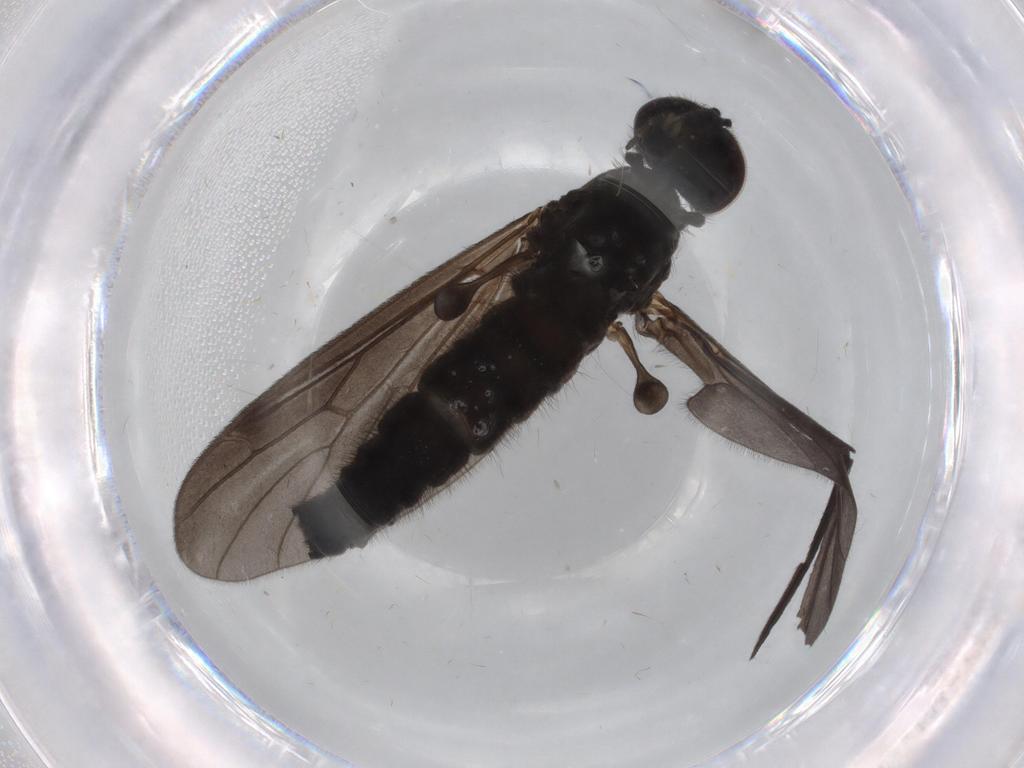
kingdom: Animalia
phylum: Arthropoda
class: Insecta
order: Diptera
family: Cecidomyiidae
